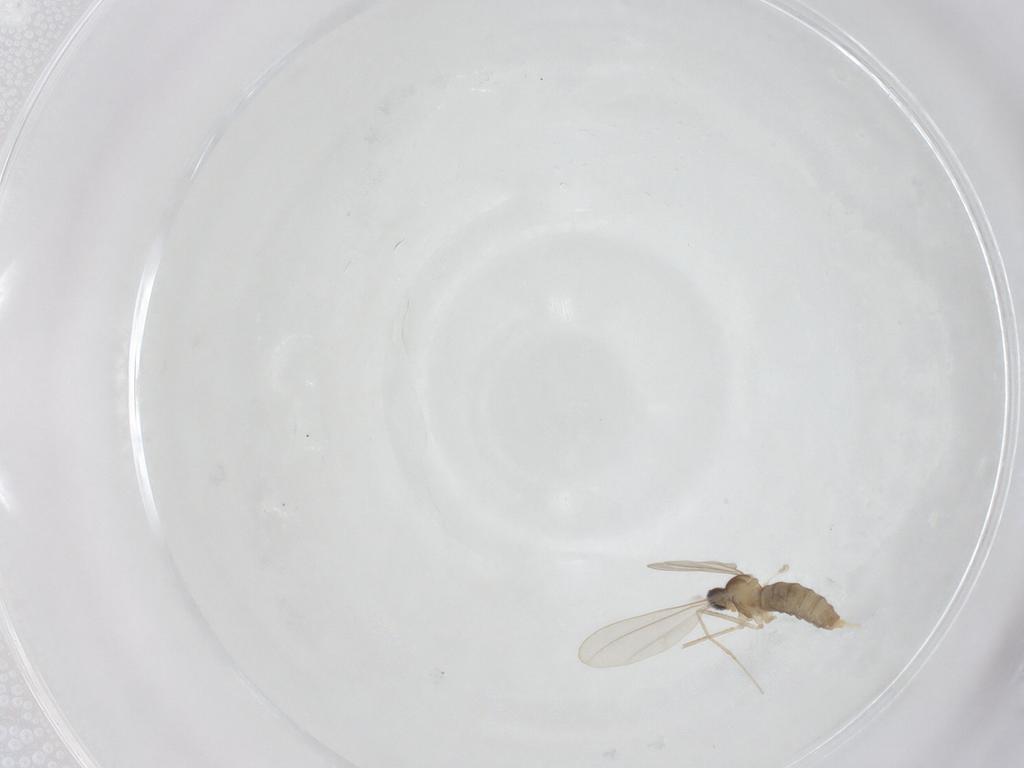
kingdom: Animalia
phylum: Arthropoda
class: Insecta
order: Diptera
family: Cecidomyiidae
